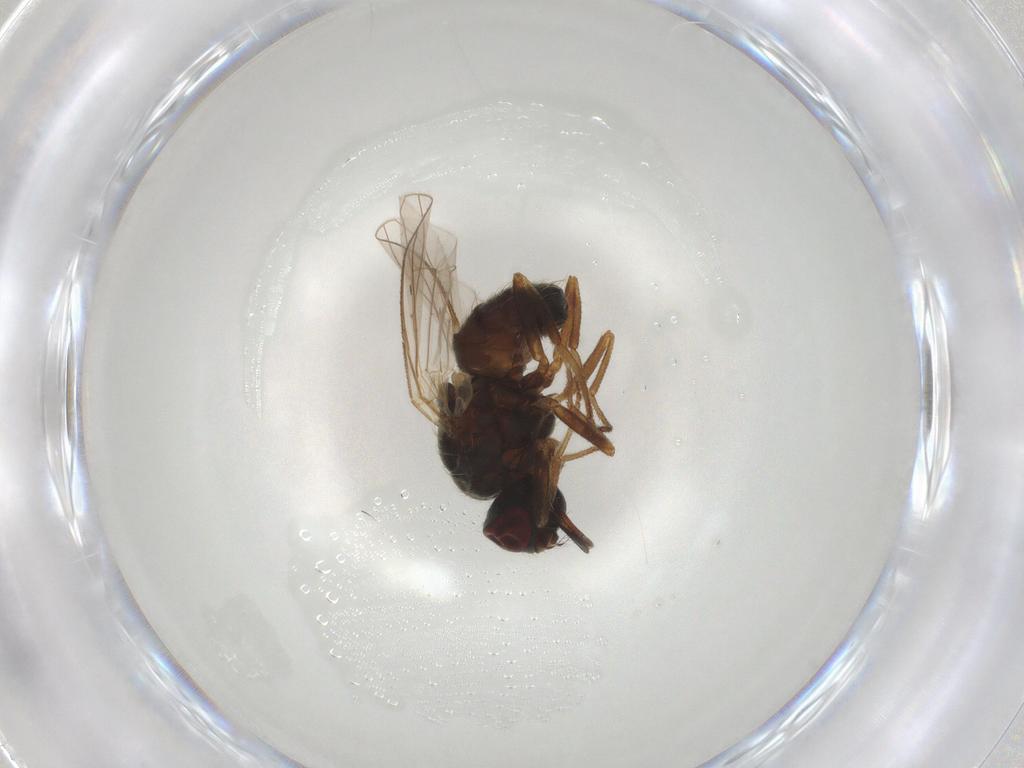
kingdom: Animalia
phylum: Arthropoda
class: Insecta
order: Diptera
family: Muscidae
